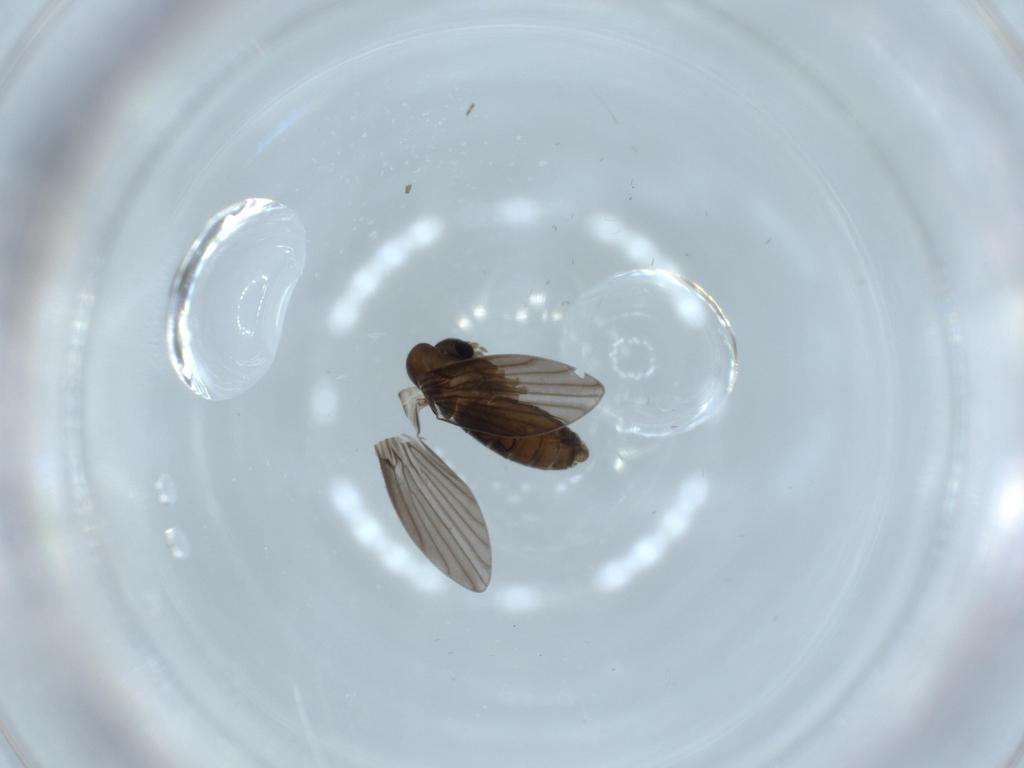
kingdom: Animalia
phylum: Arthropoda
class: Insecta
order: Diptera
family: Psychodidae
